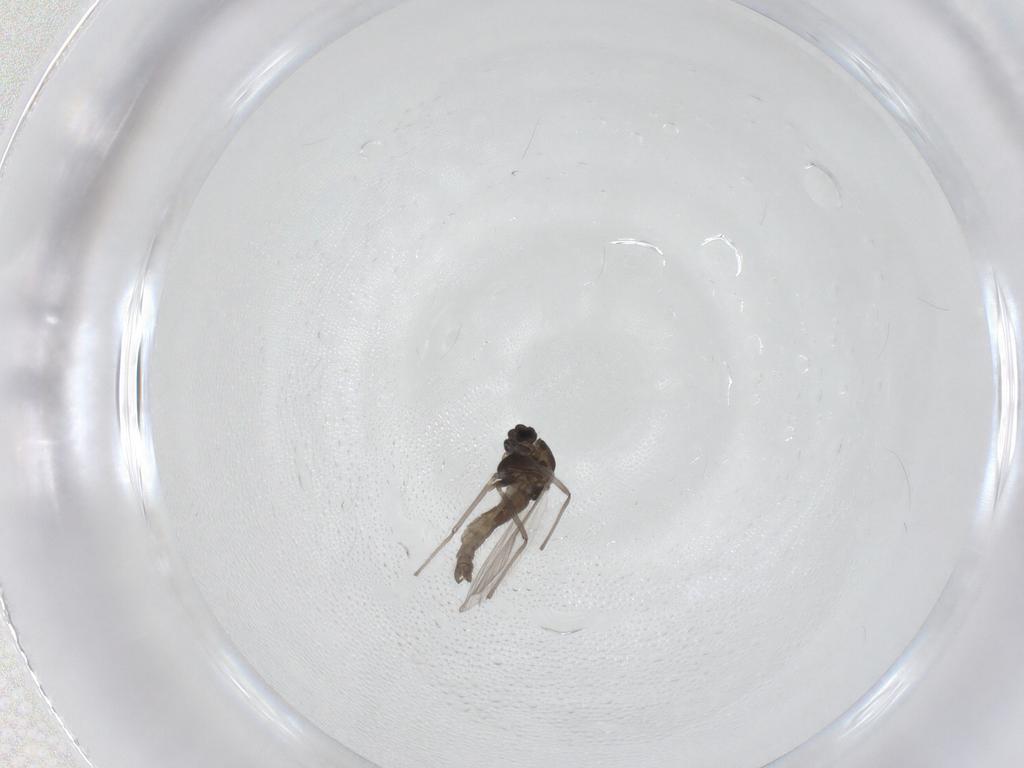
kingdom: Animalia
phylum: Arthropoda
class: Insecta
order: Diptera
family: Chironomidae
